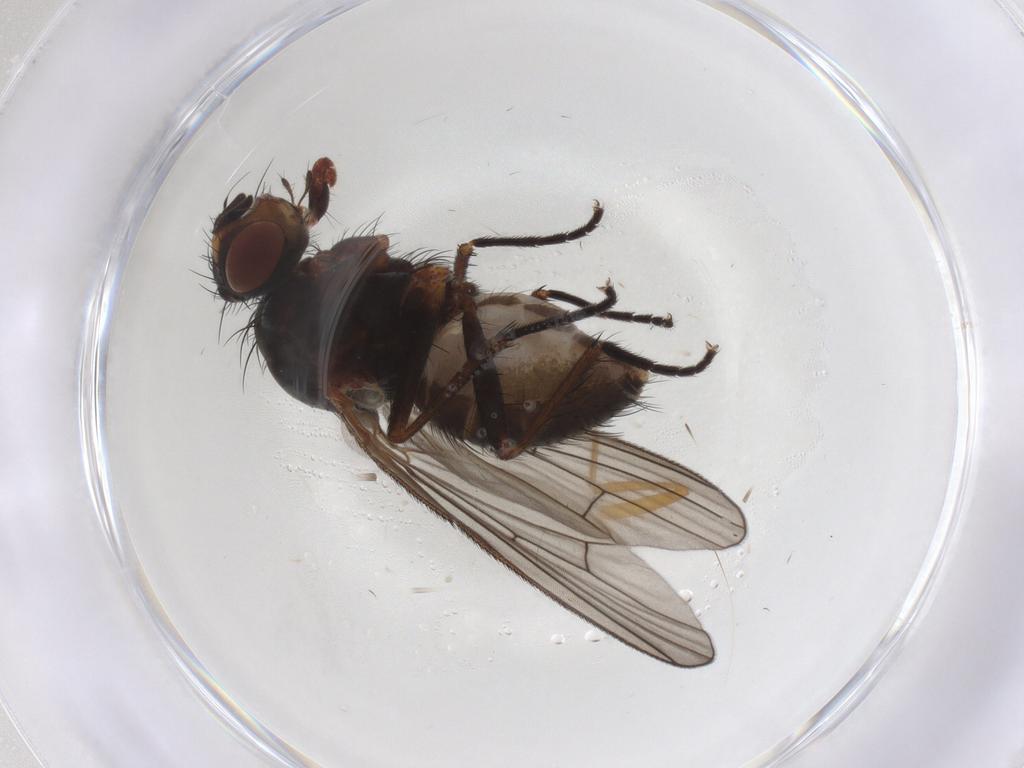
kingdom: Animalia
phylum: Arthropoda
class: Insecta
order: Diptera
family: Anthomyiidae
